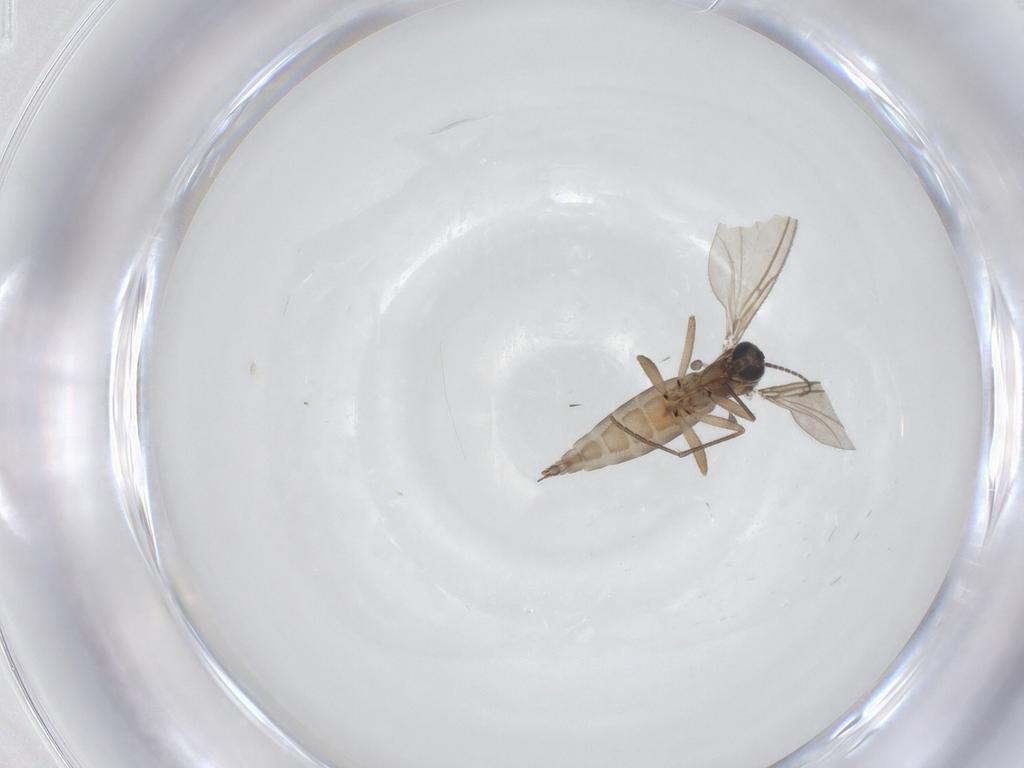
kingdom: Animalia
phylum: Arthropoda
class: Insecta
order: Diptera
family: Sciaridae
